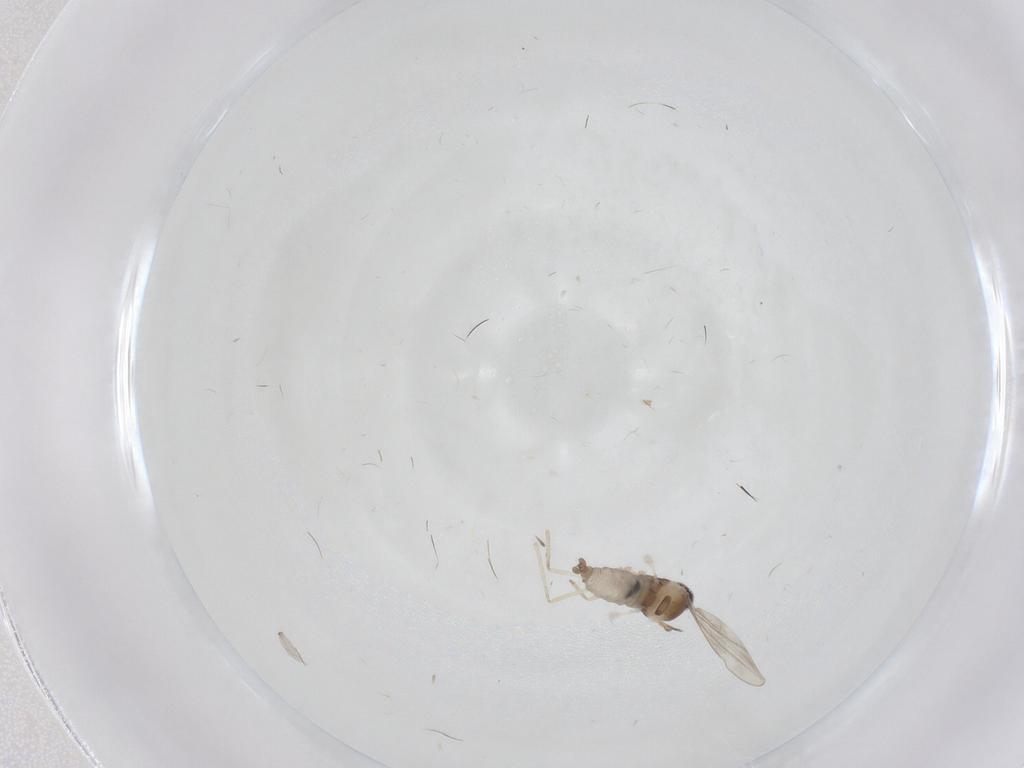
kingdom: Animalia
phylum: Arthropoda
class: Insecta
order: Diptera
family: Cecidomyiidae
